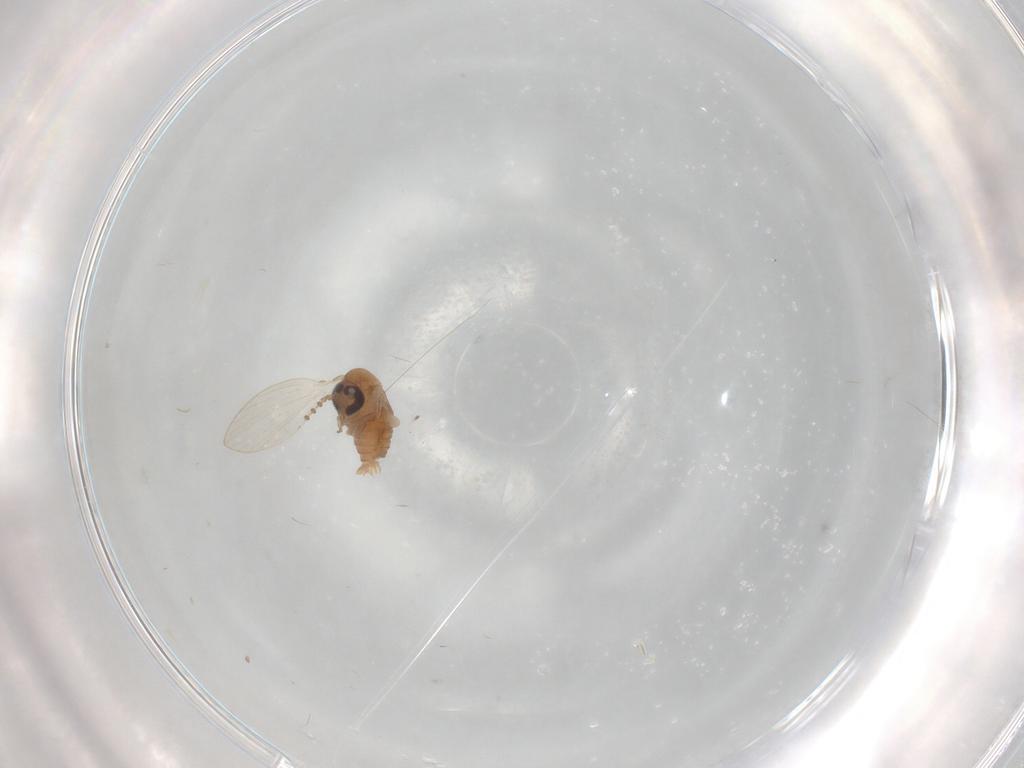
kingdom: Animalia
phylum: Arthropoda
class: Insecta
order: Diptera
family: Psychodidae
